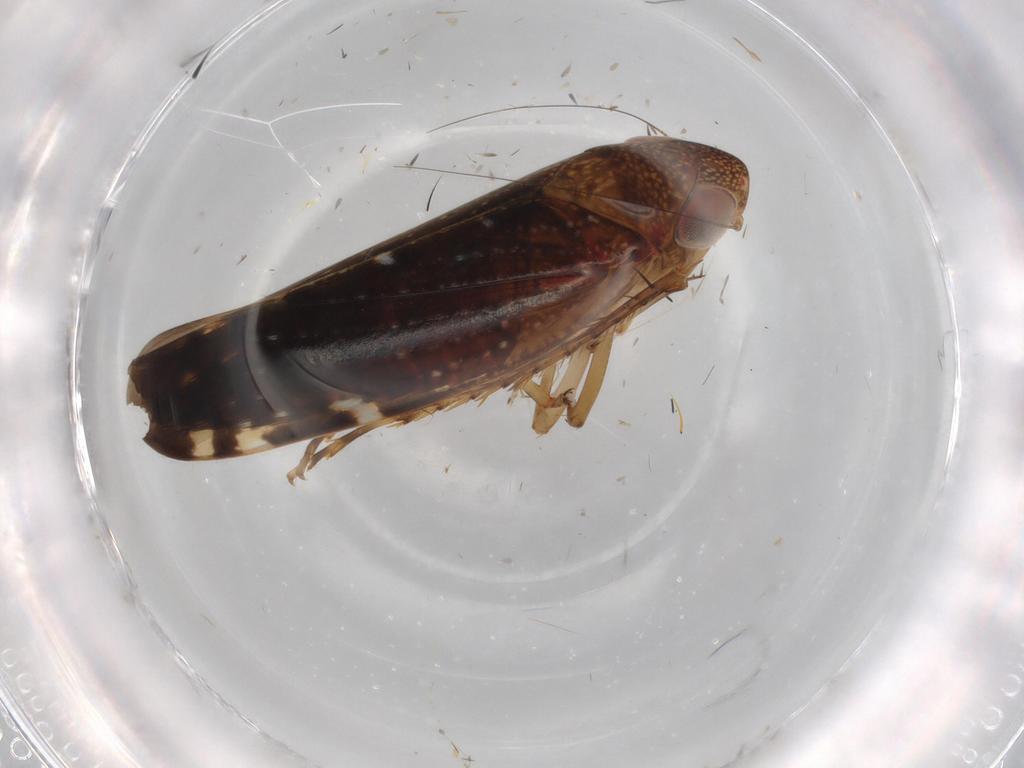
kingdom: Animalia
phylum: Arthropoda
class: Insecta
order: Hemiptera
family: Cicadellidae
